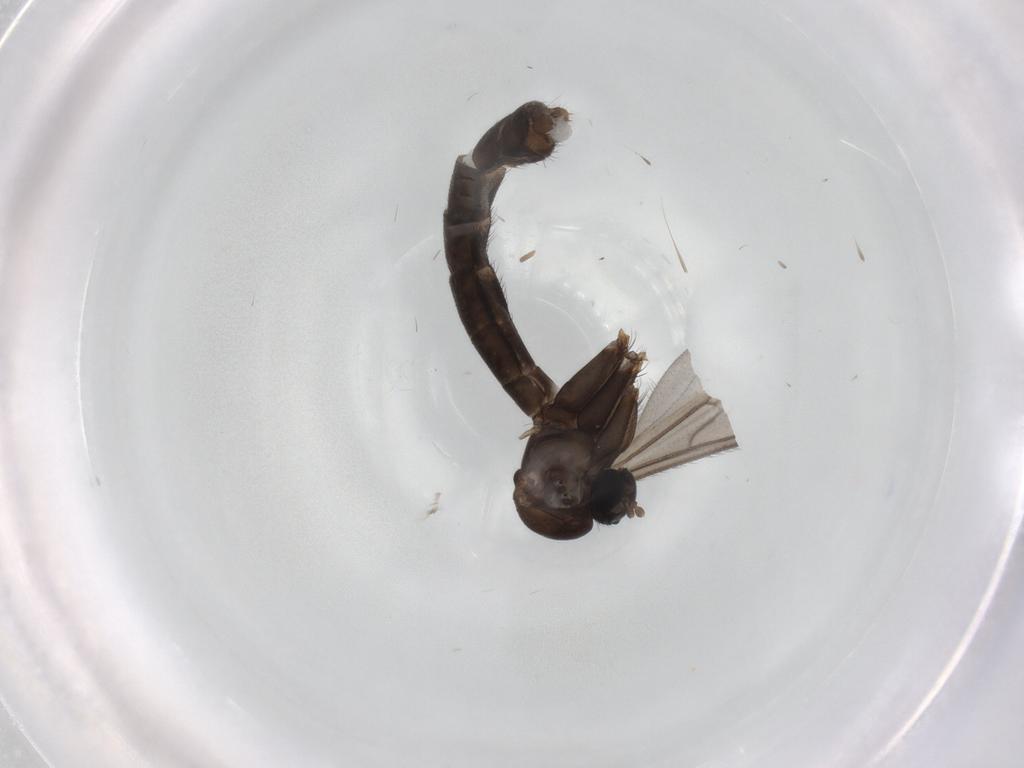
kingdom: Animalia
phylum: Arthropoda
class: Insecta
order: Diptera
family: Keroplatidae
